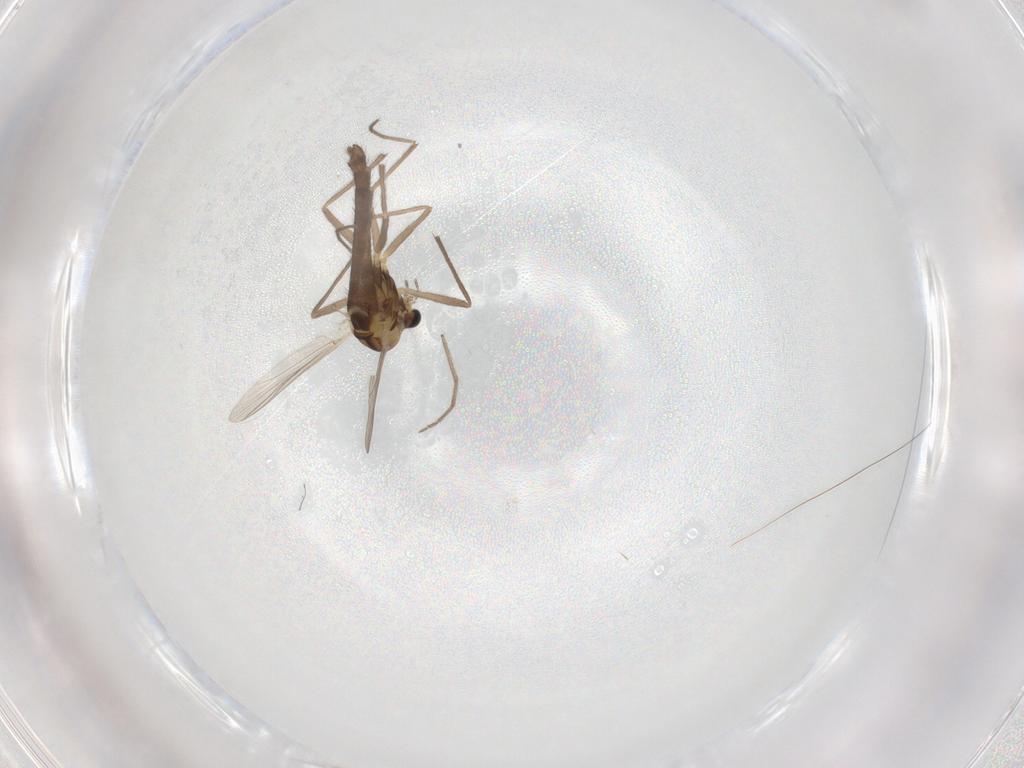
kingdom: Animalia
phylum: Arthropoda
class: Insecta
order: Diptera
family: Chironomidae
